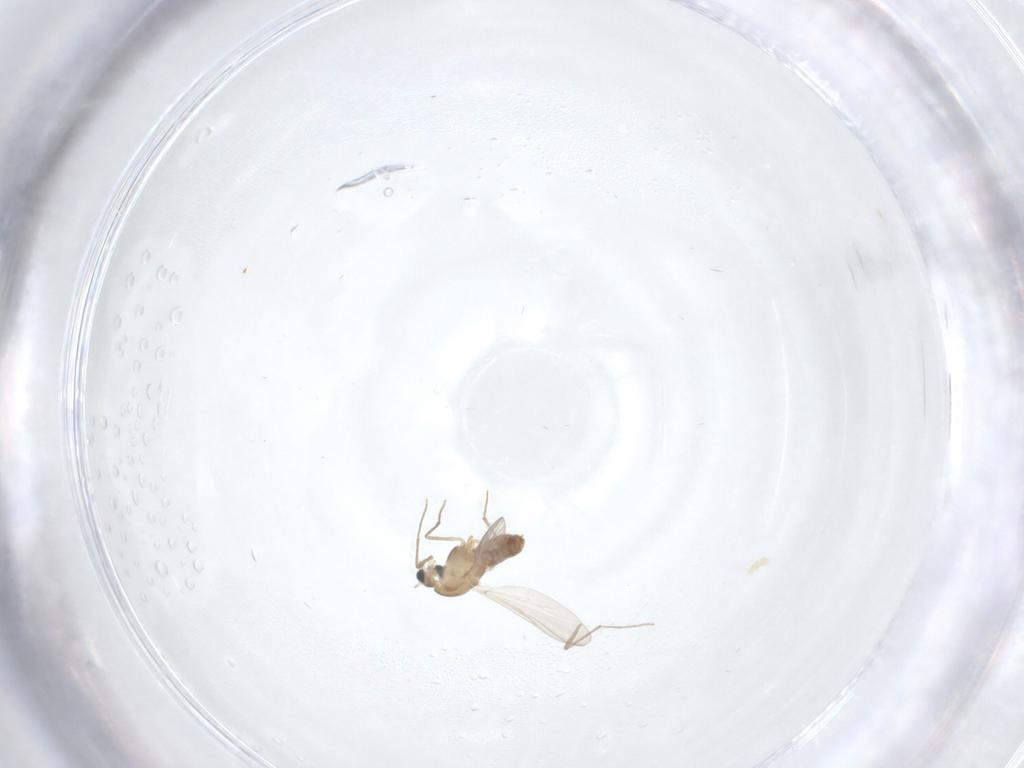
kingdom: Animalia
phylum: Arthropoda
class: Insecta
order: Diptera
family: Chironomidae
